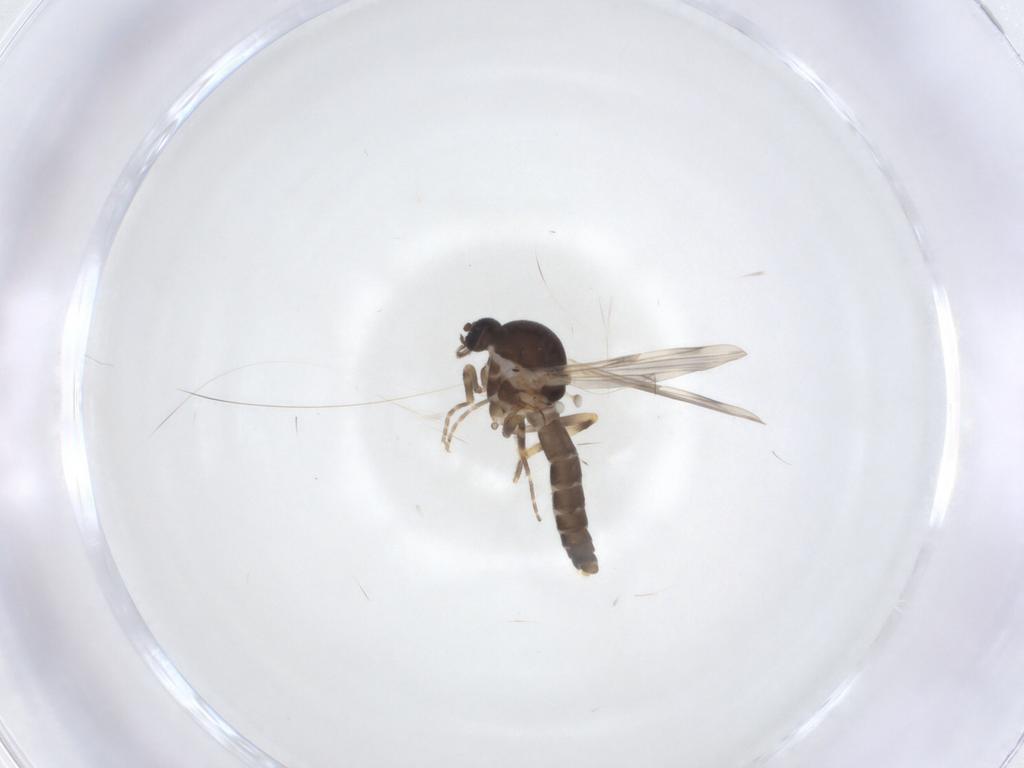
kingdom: Animalia
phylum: Arthropoda
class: Insecta
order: Diptera
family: Ceratopogonidae
